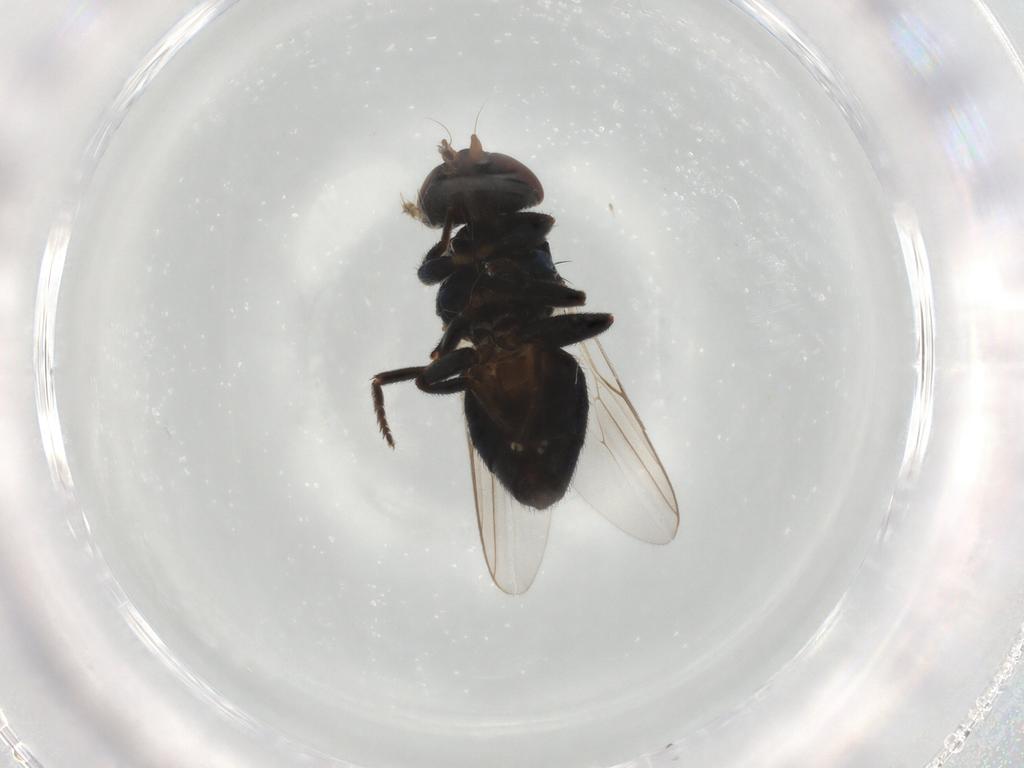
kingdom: Animalia
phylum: Arthropoda
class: Insecta
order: Diptera
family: Chloropidae
